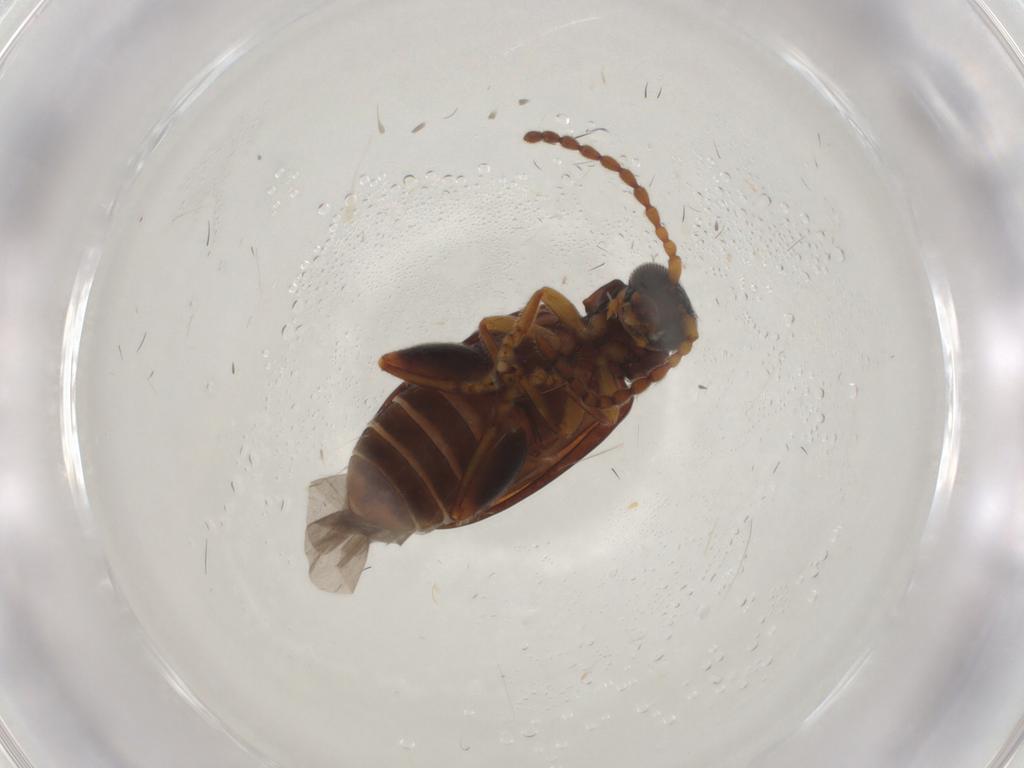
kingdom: Animalia
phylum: Arthropoda
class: Insecta
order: Coleoptera
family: Chrysomelidae
